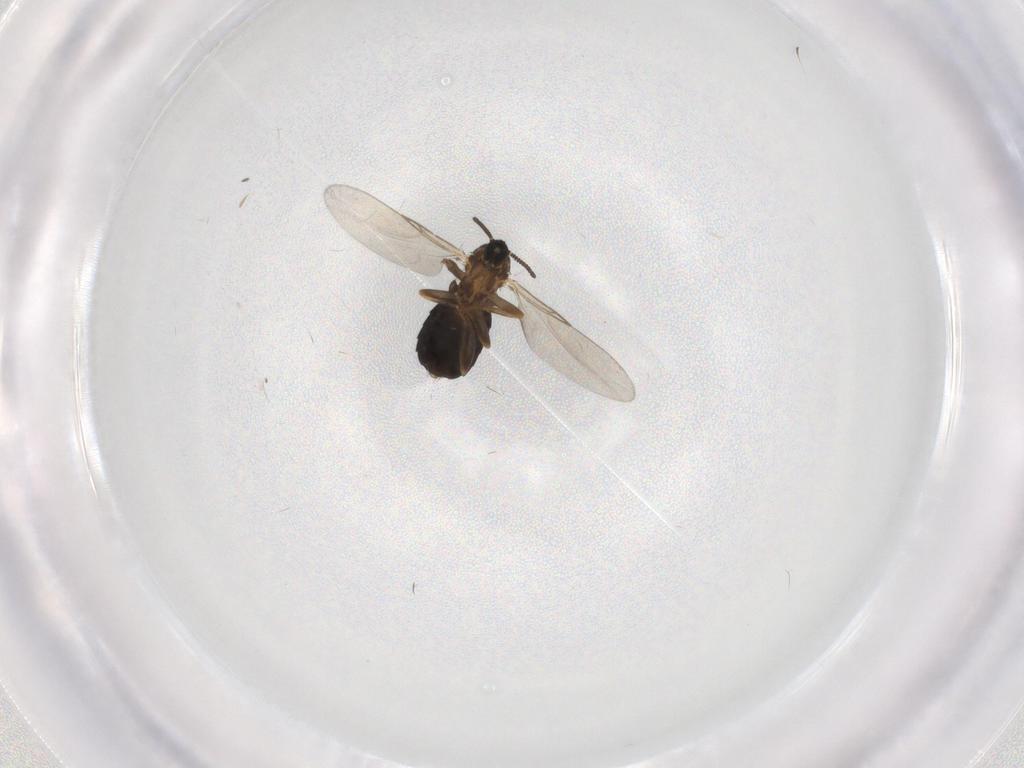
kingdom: Animalia
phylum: Arthropoda
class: Insecta
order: Diptera
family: Scatopsidae
